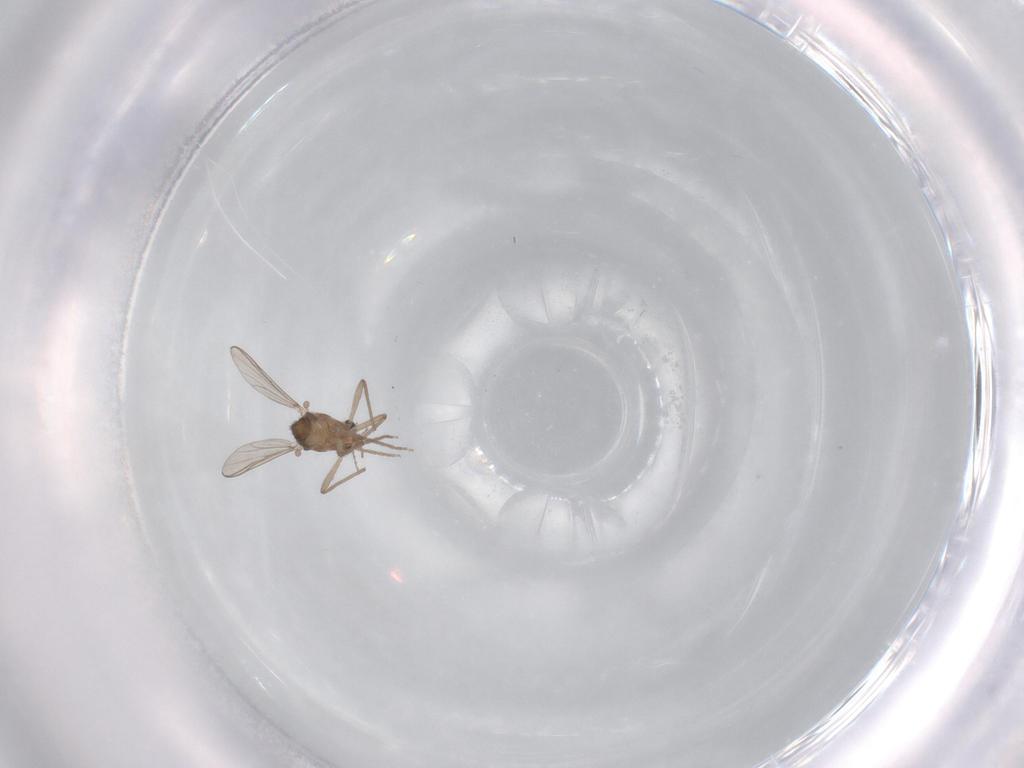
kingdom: Animalia
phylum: Arthropoda
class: Insecta
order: Diptera
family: Chironomidae
